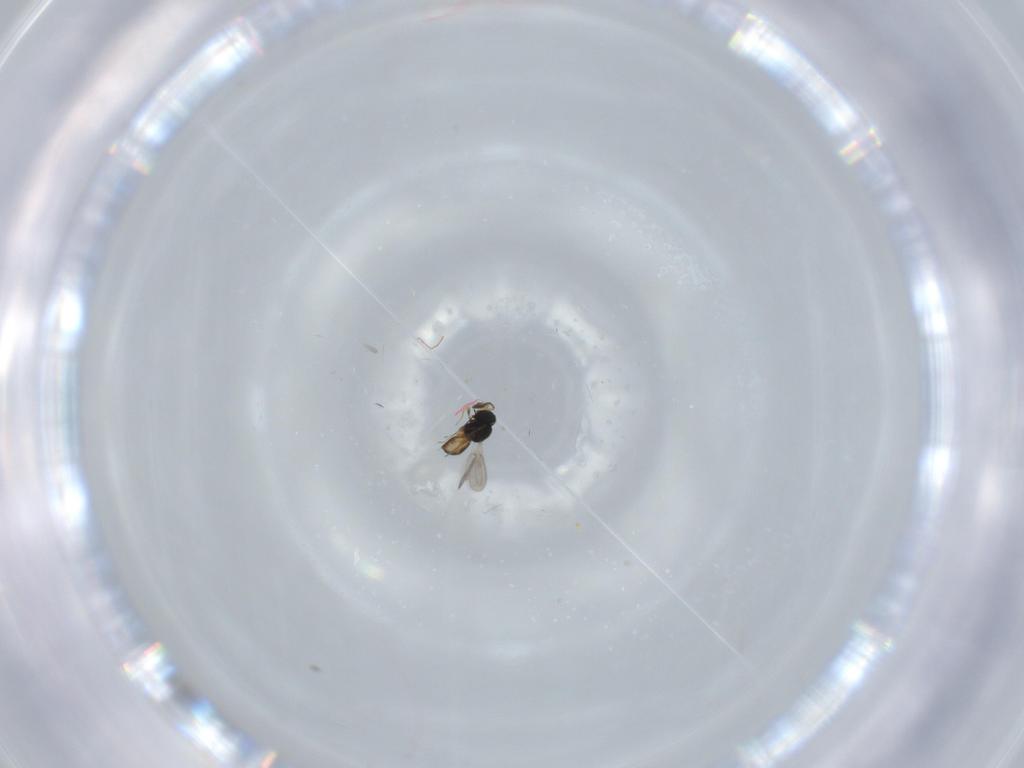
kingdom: Animalia
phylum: Arthropoda
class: Insecta
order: Hymenoptera
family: Scelionidae
